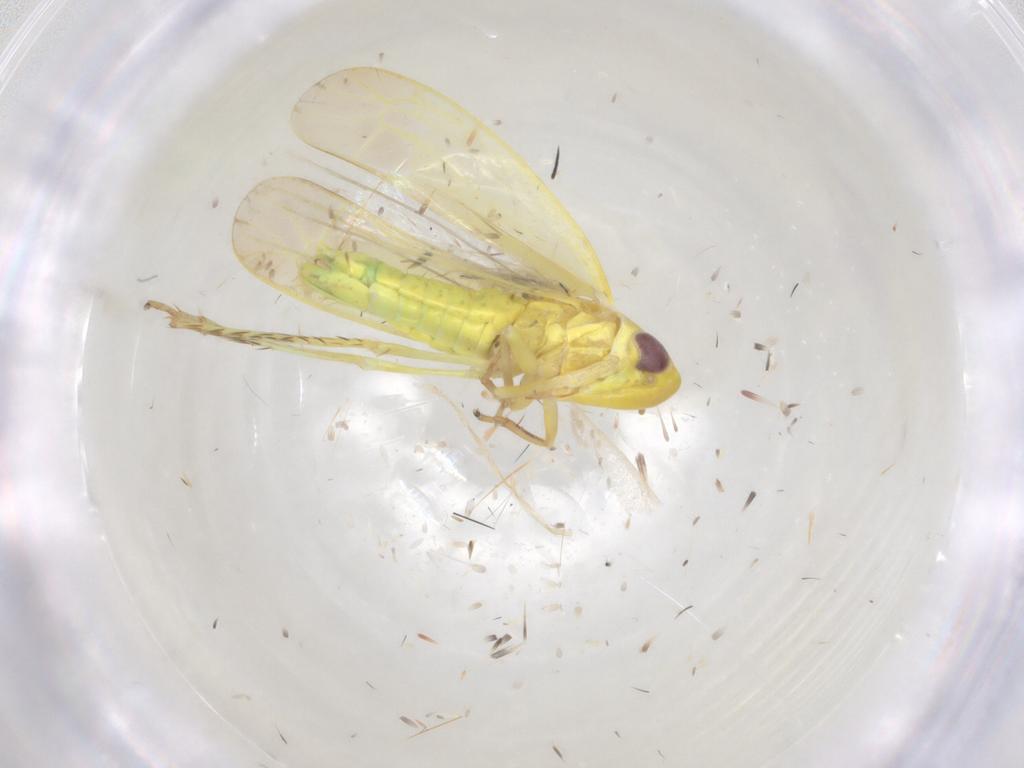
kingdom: Animalia
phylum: Arthropoda
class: Insecta
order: Hemiptera
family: Cicadellidae
